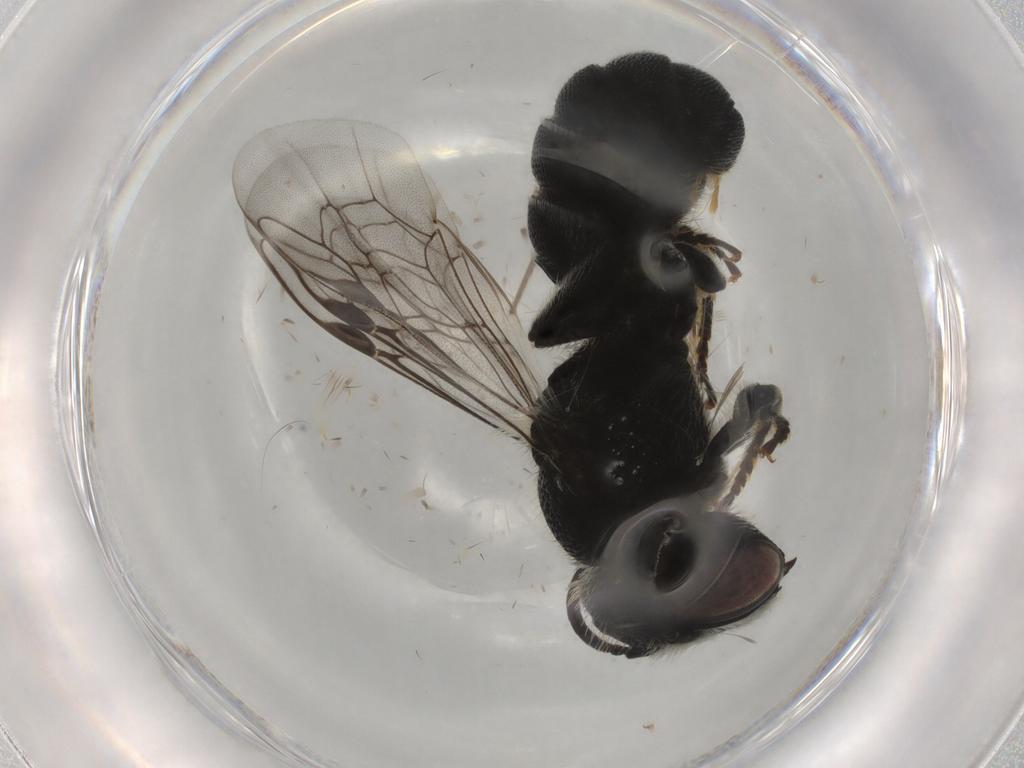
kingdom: Animalia
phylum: Arthropoda
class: Insecta
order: Hymenoptera
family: Megachilidae
